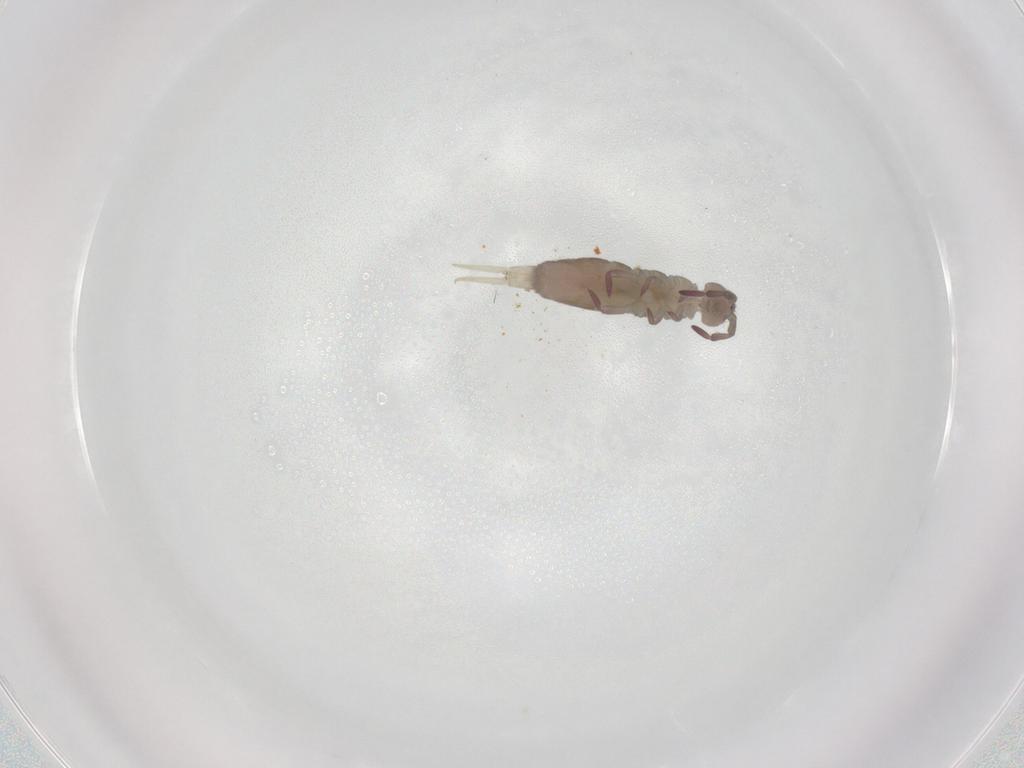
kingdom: Animalia
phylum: Arthropoda
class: Collembola
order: Entomobryomorpha
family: Isotomidae
